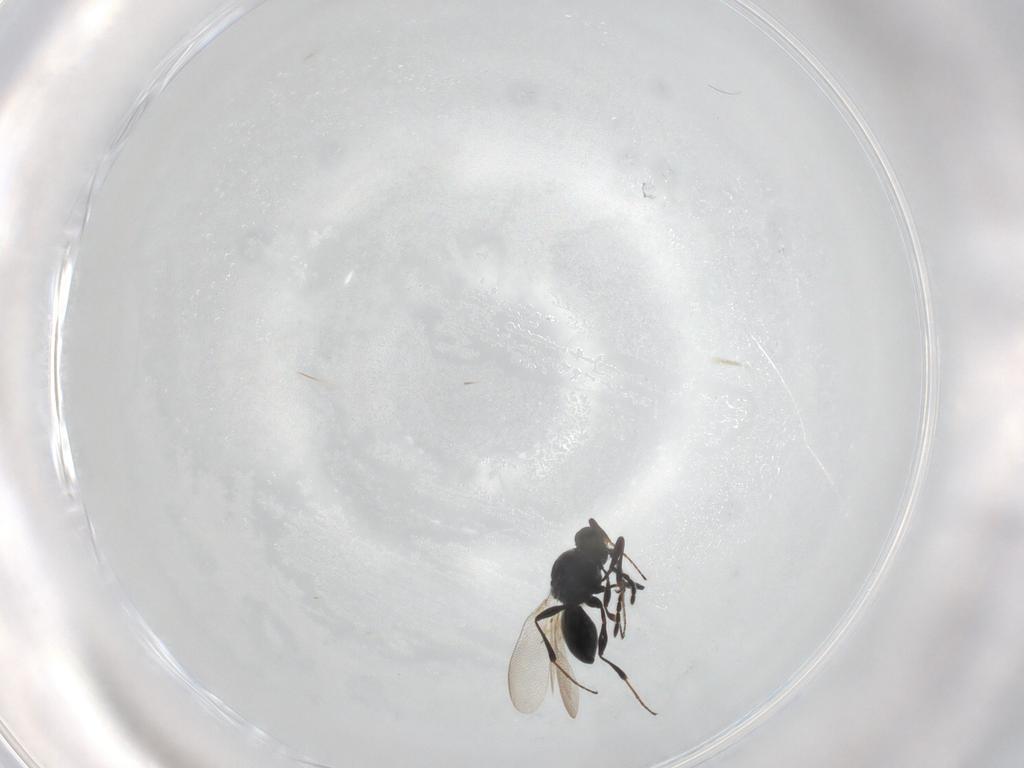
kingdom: Animalia
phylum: Arthropoda
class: Insecta
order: Hymenoptera
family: Platygastridae
